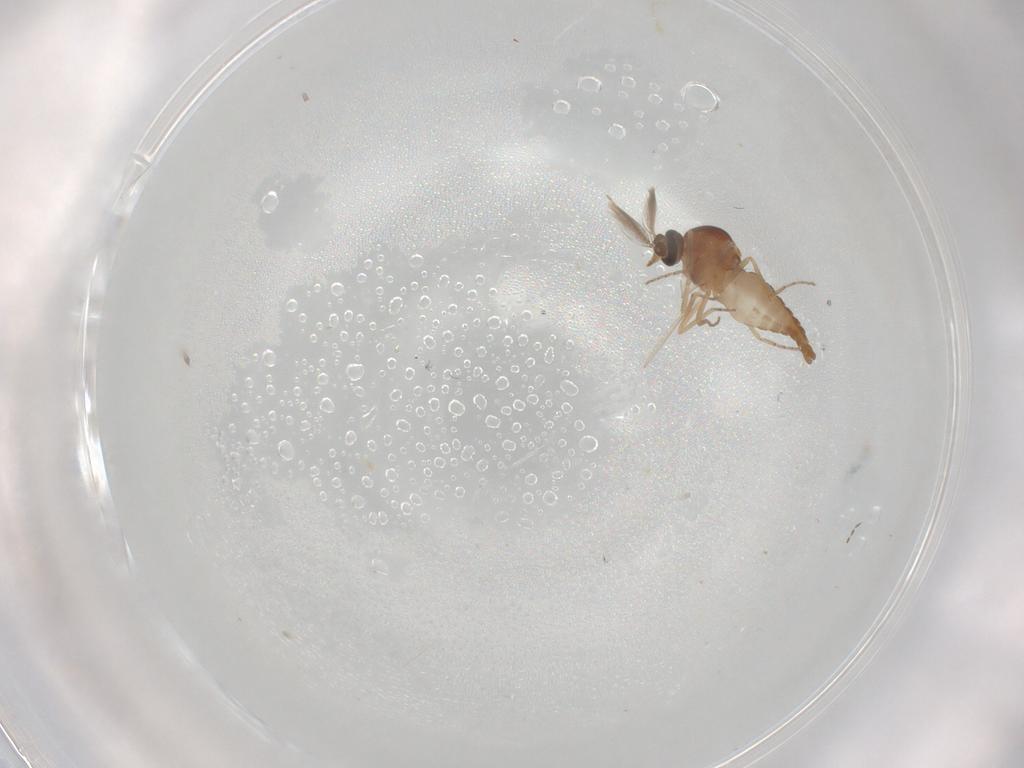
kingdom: Animalia
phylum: Arthropoda
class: Insecta
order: Diptera
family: Ceratopogonidae
